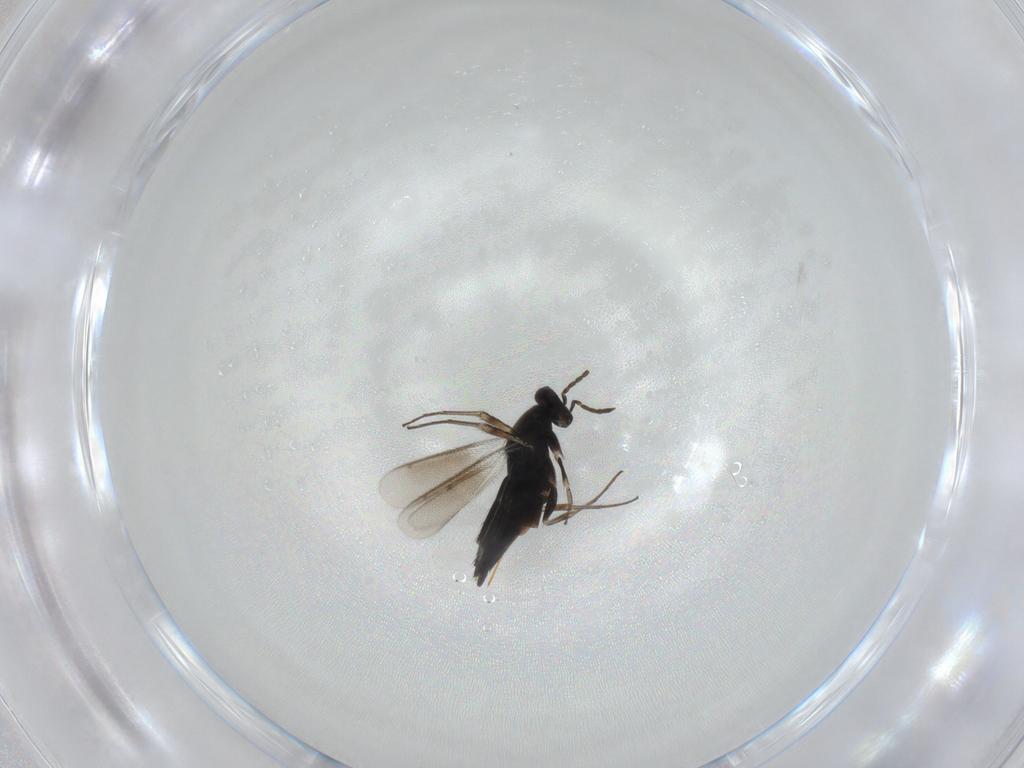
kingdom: Animalia
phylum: Arthropoda
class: Insecta
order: Hymenoptera
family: Eulophidae
